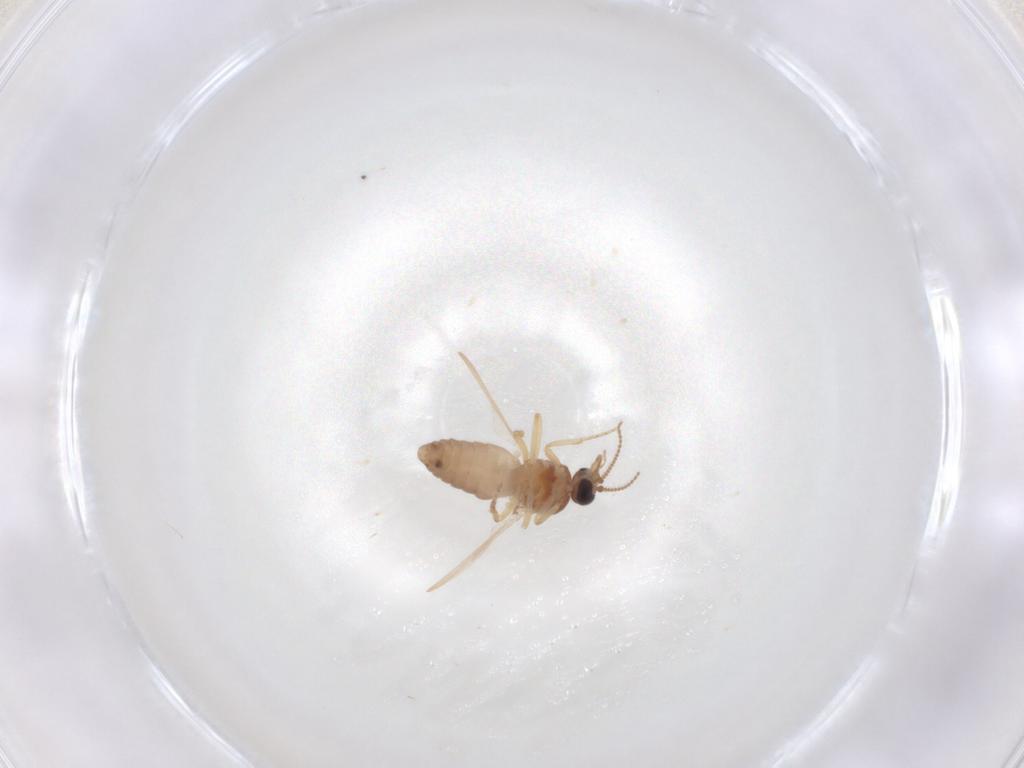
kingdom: Animalia
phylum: Arthropoda
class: Insecta
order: Diptera
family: Ceratopogonidae
